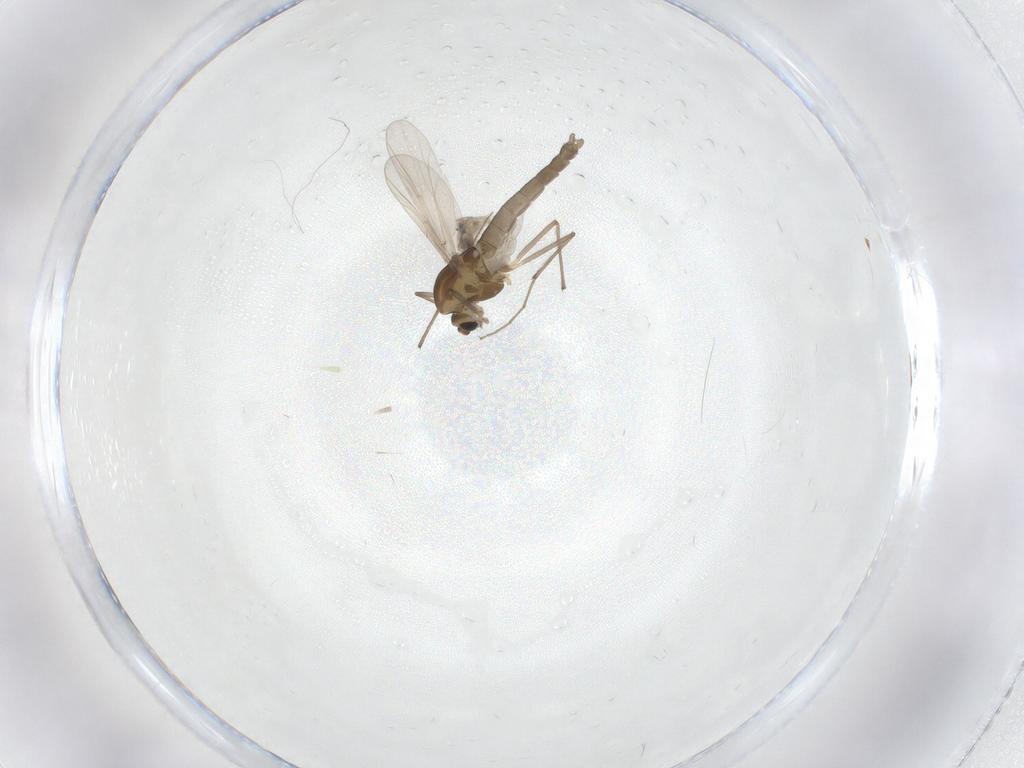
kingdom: Animalia
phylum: Arthropoda
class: Insecta
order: Diptera
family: Chironomidae
